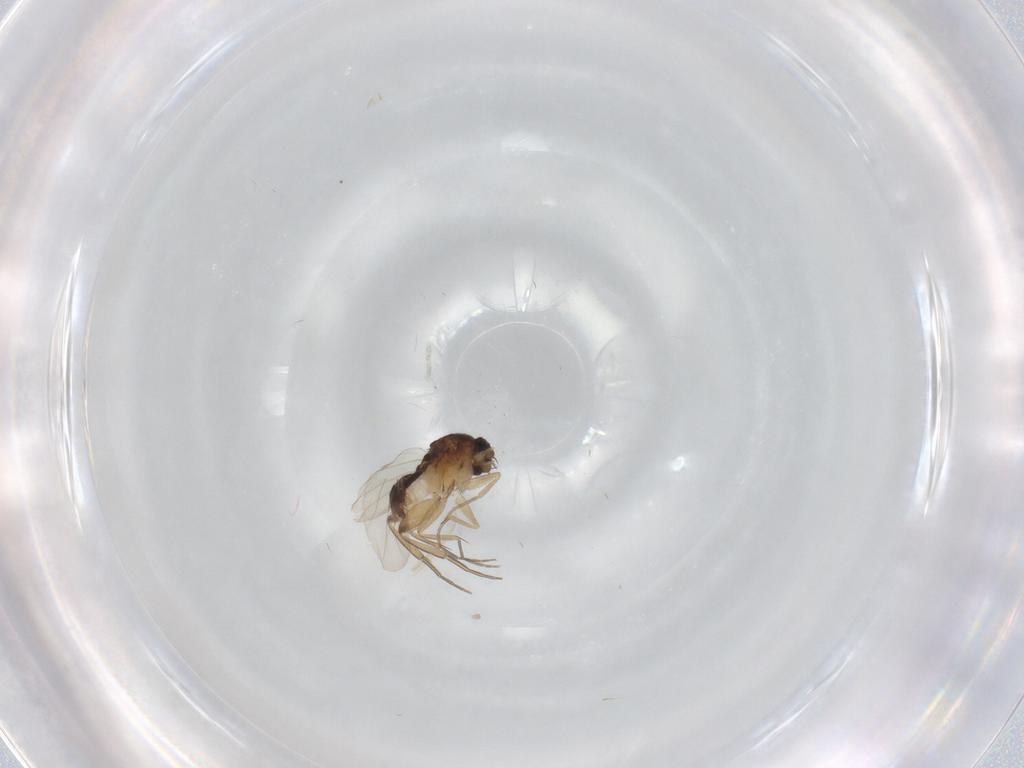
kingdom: Animalia
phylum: Arthropoda
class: Insecta
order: Diptera
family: Glossinidae
